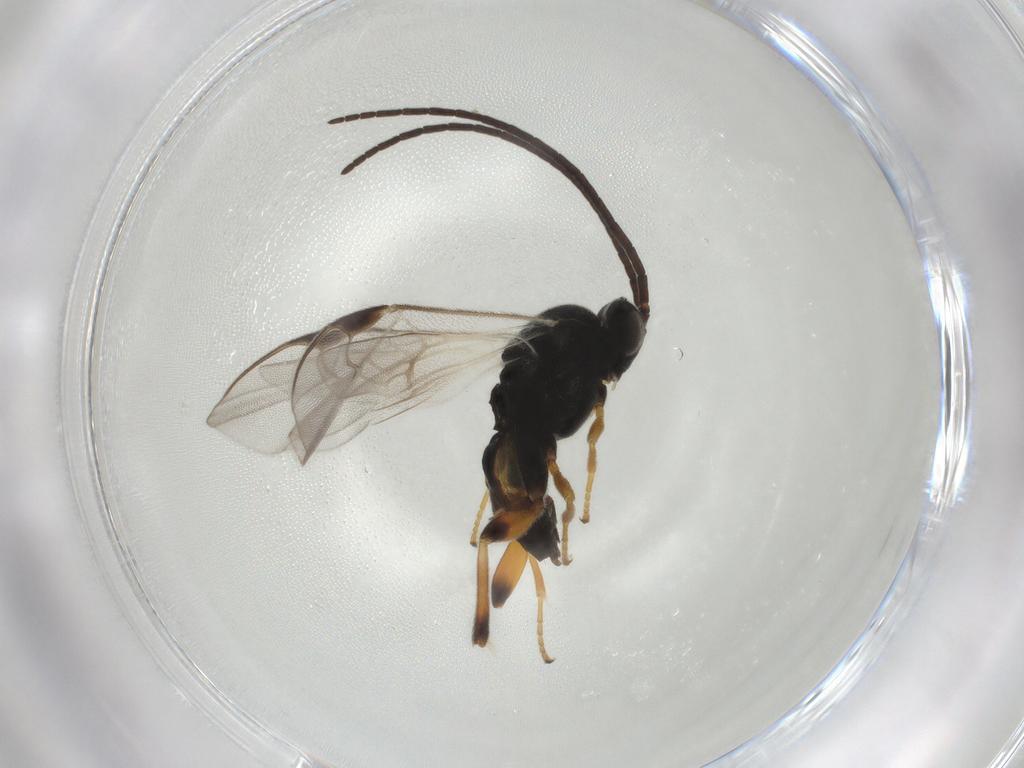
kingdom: Animalia
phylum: Arthropoda
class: Insecta
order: Hymenoptera
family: Braconidae
